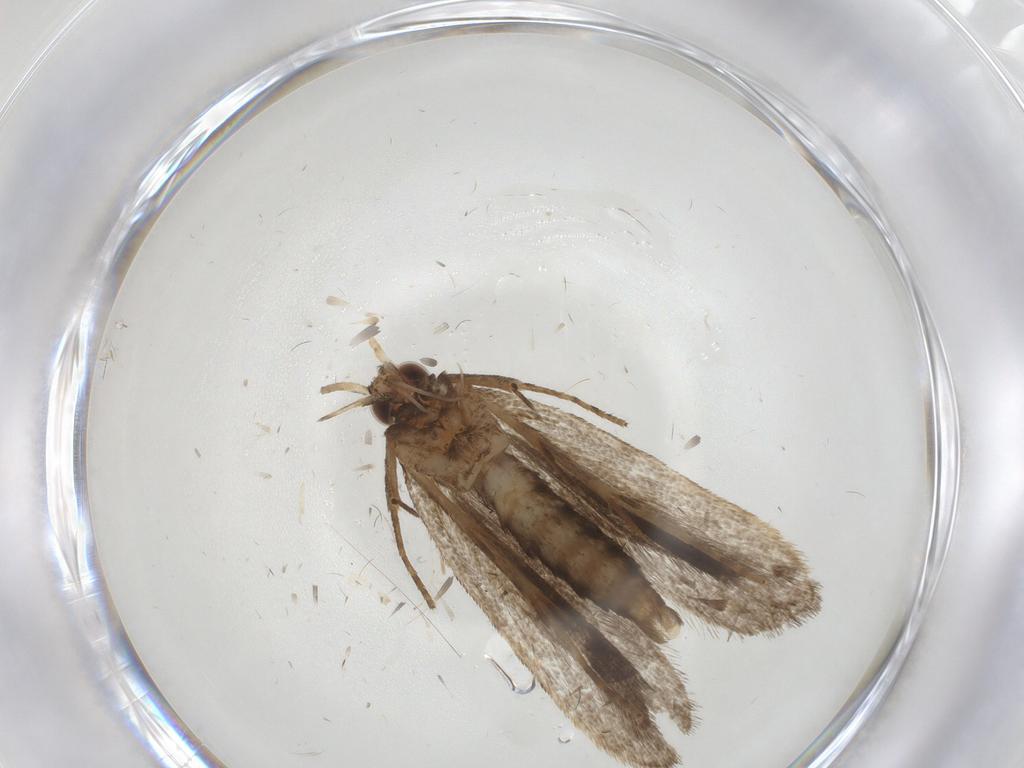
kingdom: Animalia
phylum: Arthropoda
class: Insecta
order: Lepidoptera
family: Gelechiidae
